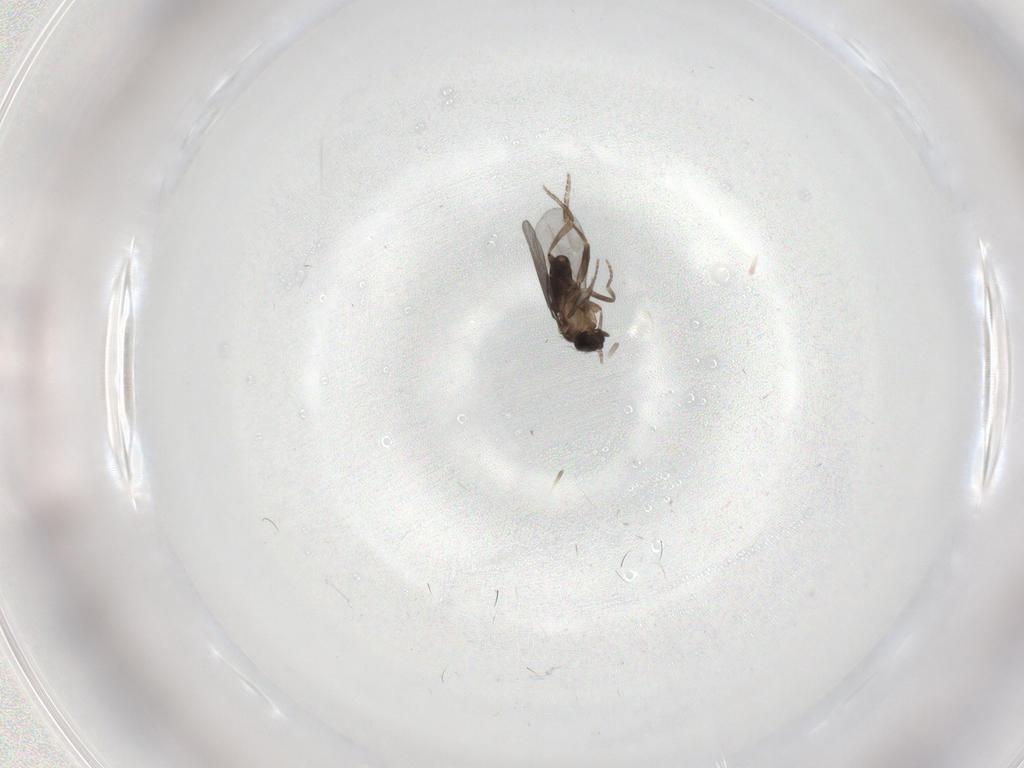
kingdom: Animalia
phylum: Arthropoda
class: Insecta
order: Diptera
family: Cecidomyiidae
